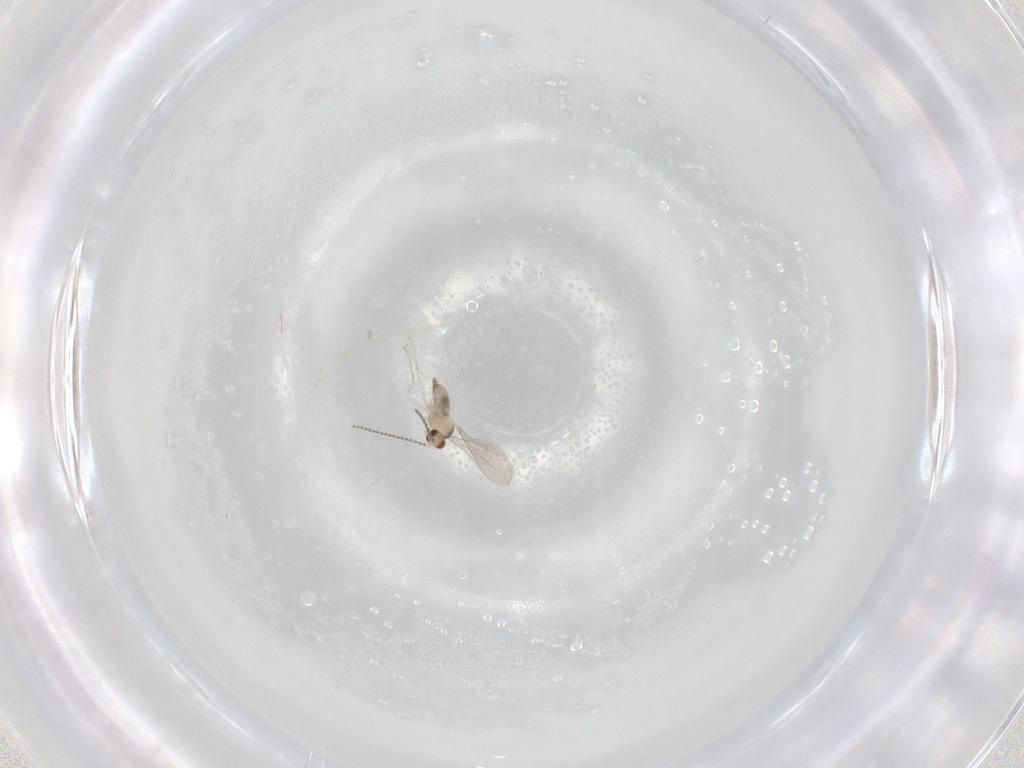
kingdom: Animalia
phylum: Arthropoda
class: Insecta
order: Diptera
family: Cecidomyiidae
